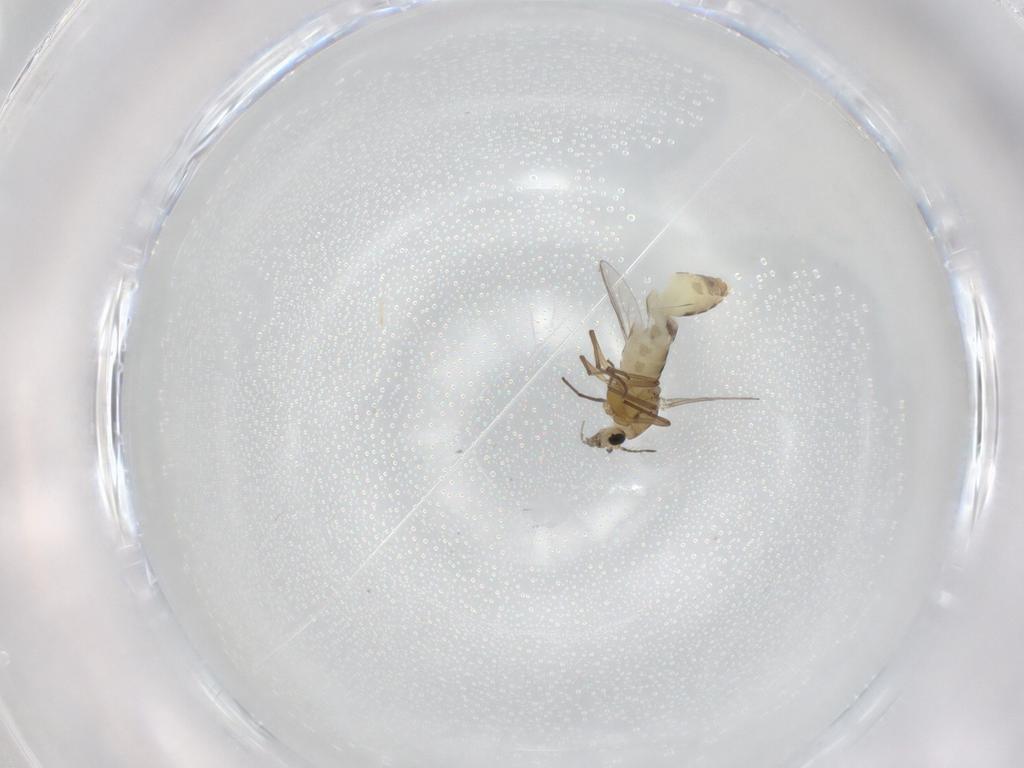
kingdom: Animalia
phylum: Arthropoda
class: Insecta
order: Diptera
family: Chironomidae
